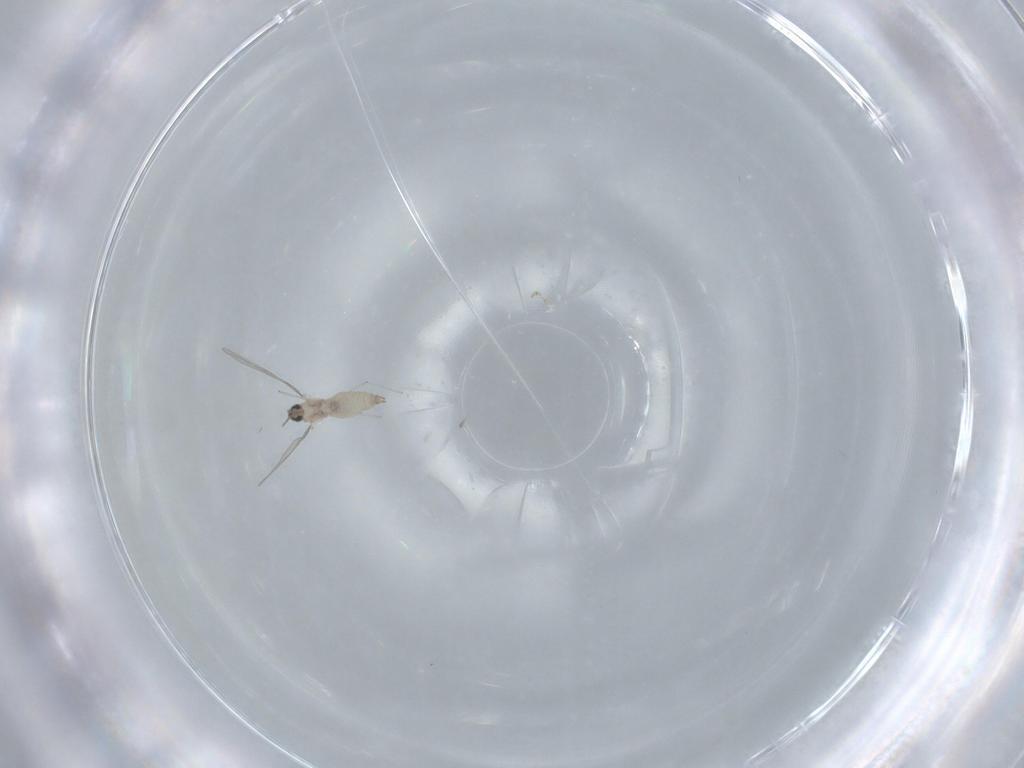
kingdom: Animalia
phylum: Arthropoda
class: Insecta
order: Diptera
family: Cecidomyiidae
